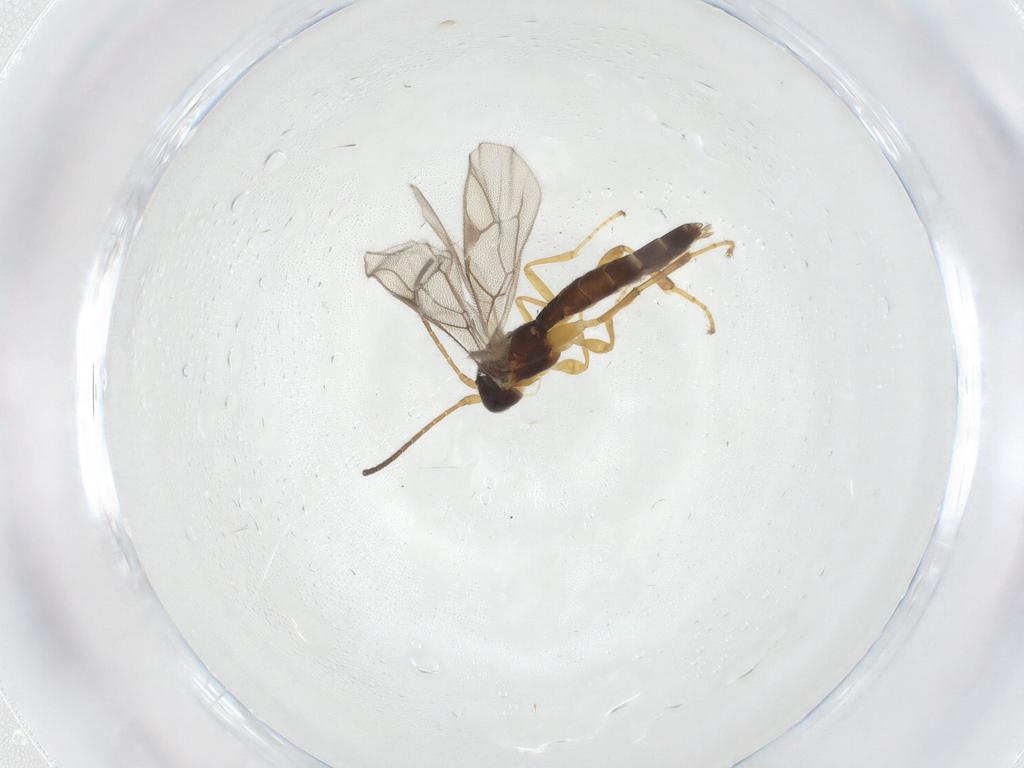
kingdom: Animalia
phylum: Arthropoda
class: Insecta
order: Hymenoptera
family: Ichneumonidae
